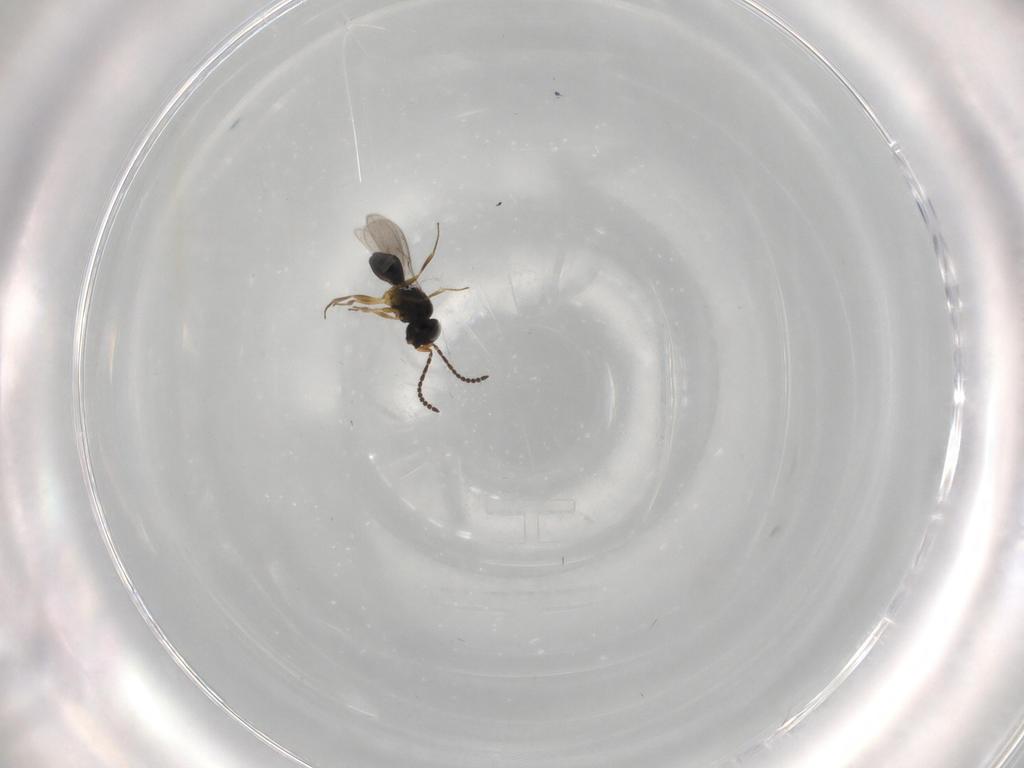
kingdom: Animalia
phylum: Arthropoda
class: Insecta
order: Hymenoptera
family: Scelionidae
